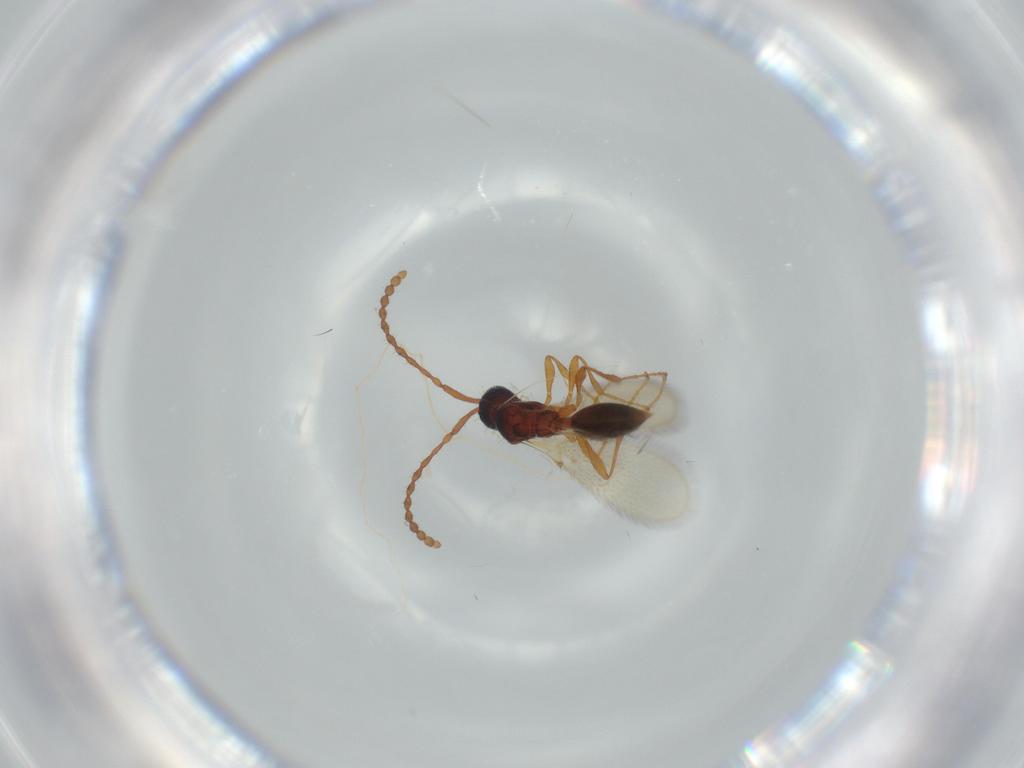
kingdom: Animalia
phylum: Arthropoda
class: Insecta
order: Hymenoptera
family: Diapriidae
